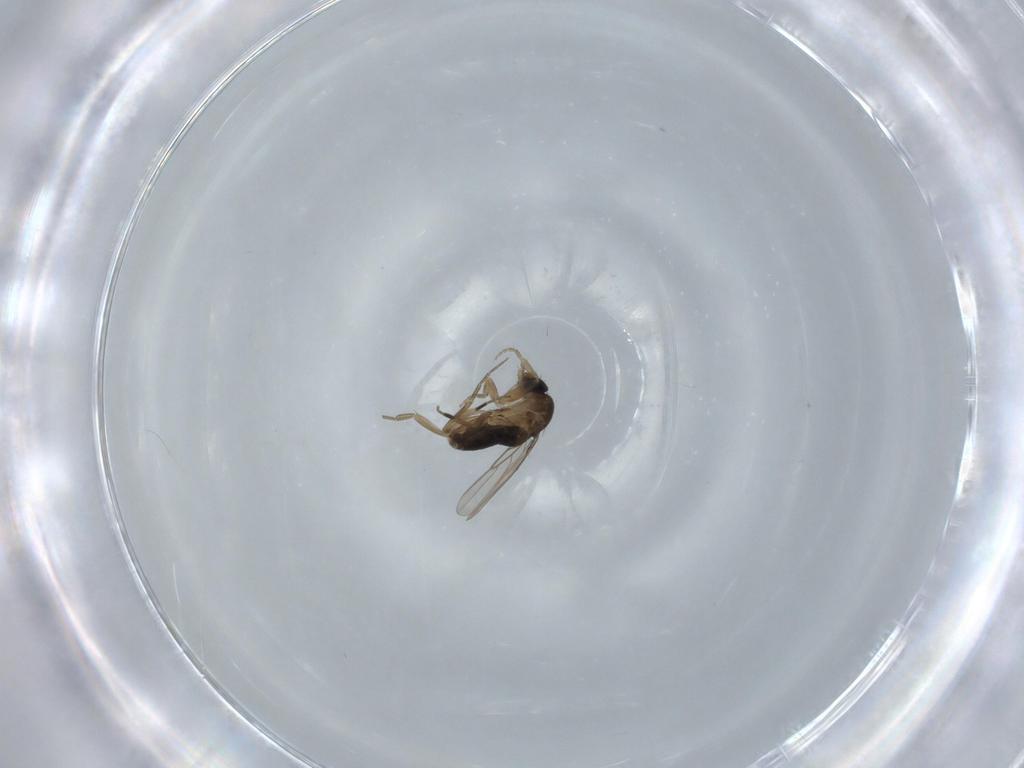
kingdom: Animalia
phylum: Arthropoda
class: Insecta
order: Diptera
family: Phoridae
